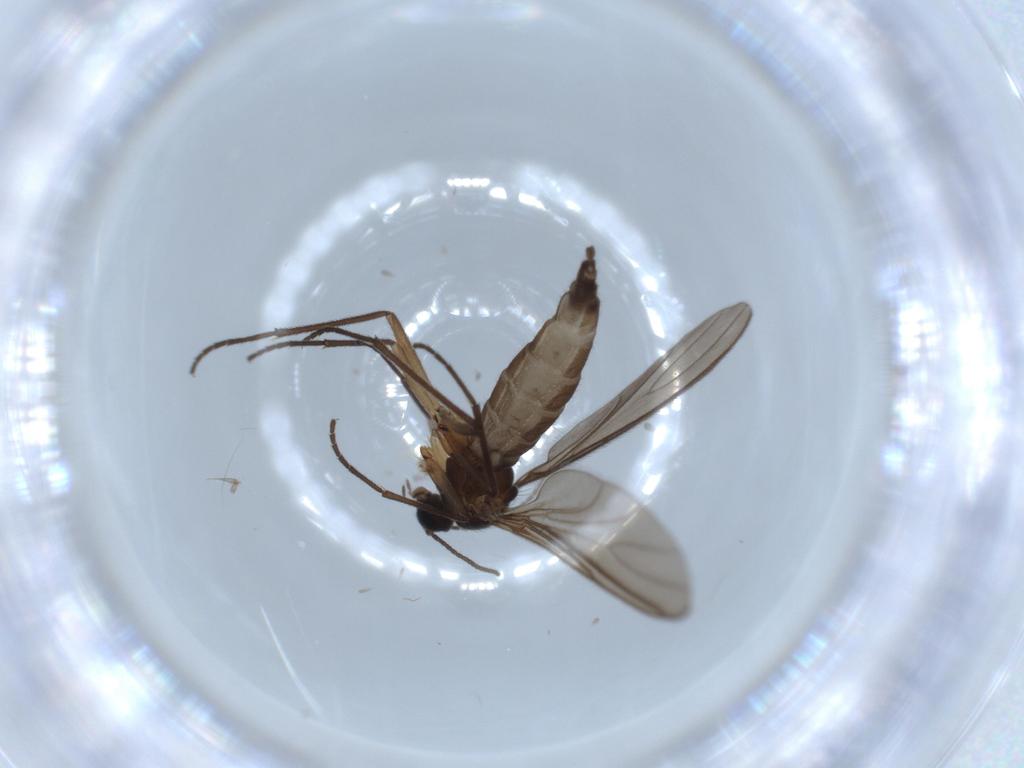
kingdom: Animalia
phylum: Arthropoda
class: Insecta
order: Diptera
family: Sciaridae
